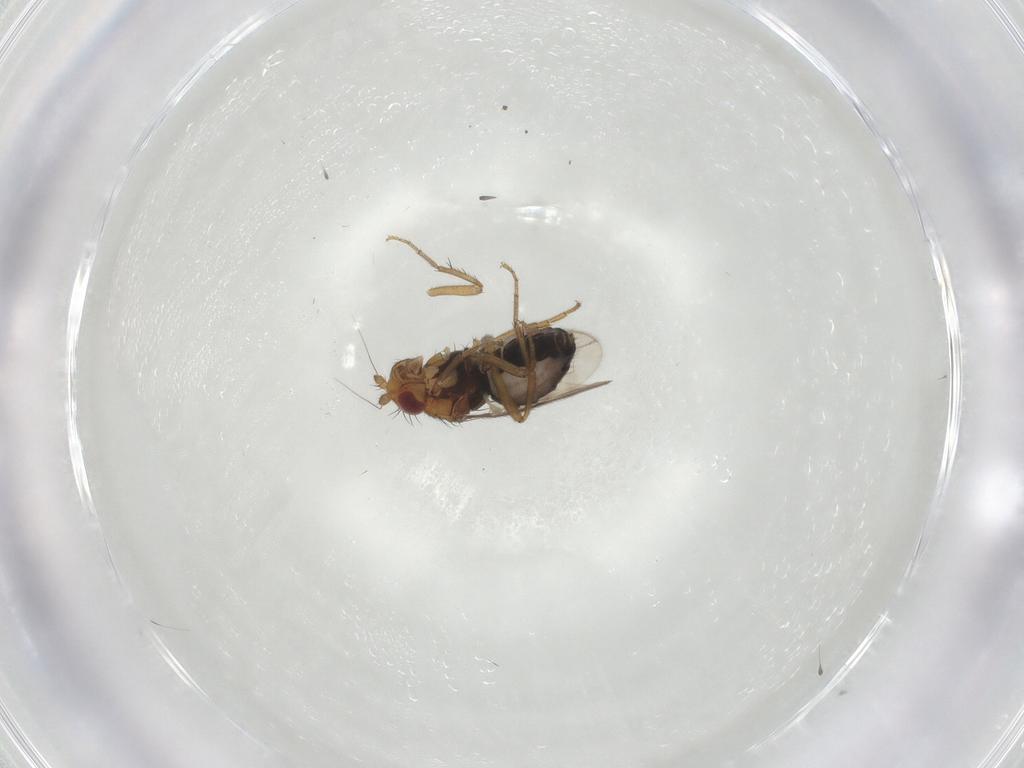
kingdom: Animalia
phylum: Arthropoda
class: Insecta
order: Diptera
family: Sphaeroceridae
